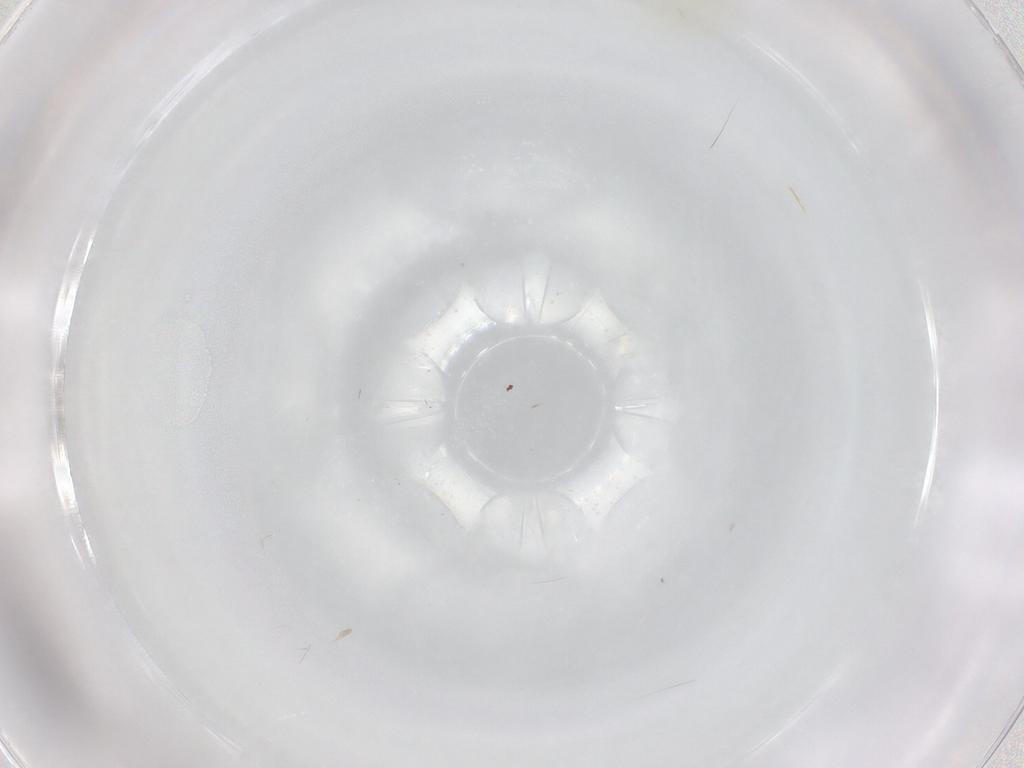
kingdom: Animalia
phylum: Arthropoda
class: Insecta
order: Hemiptera
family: Aleyrodidae
